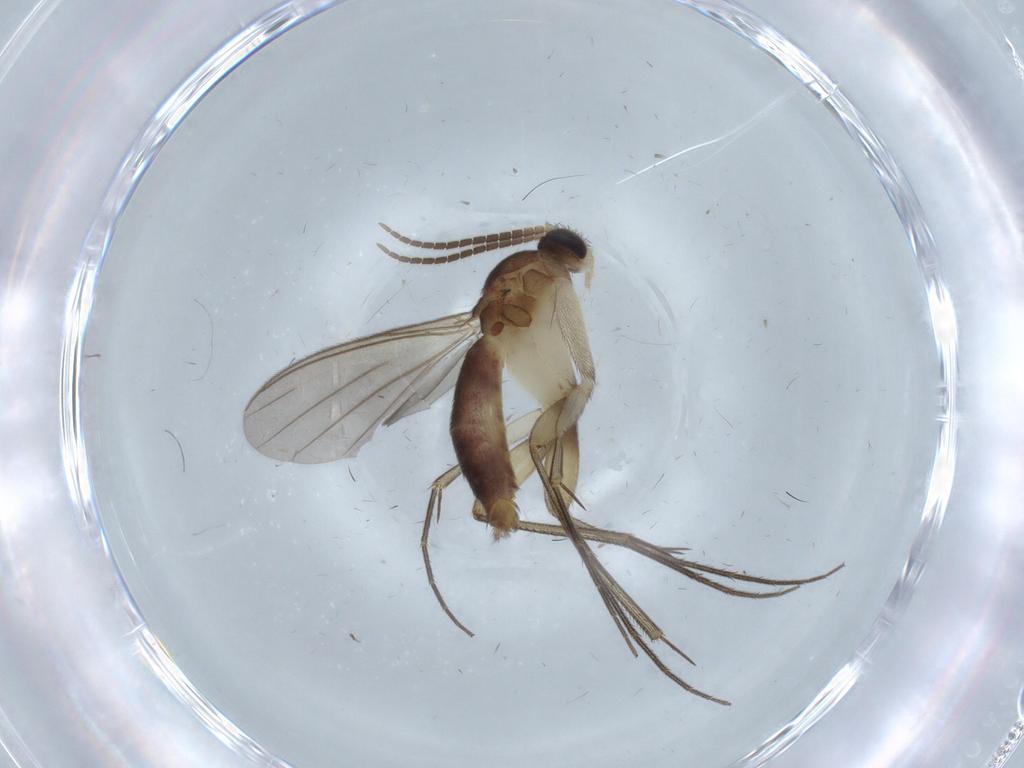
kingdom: Animalia
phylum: Arthropoda
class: Insecta
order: Diptera
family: Mycetophilidae
